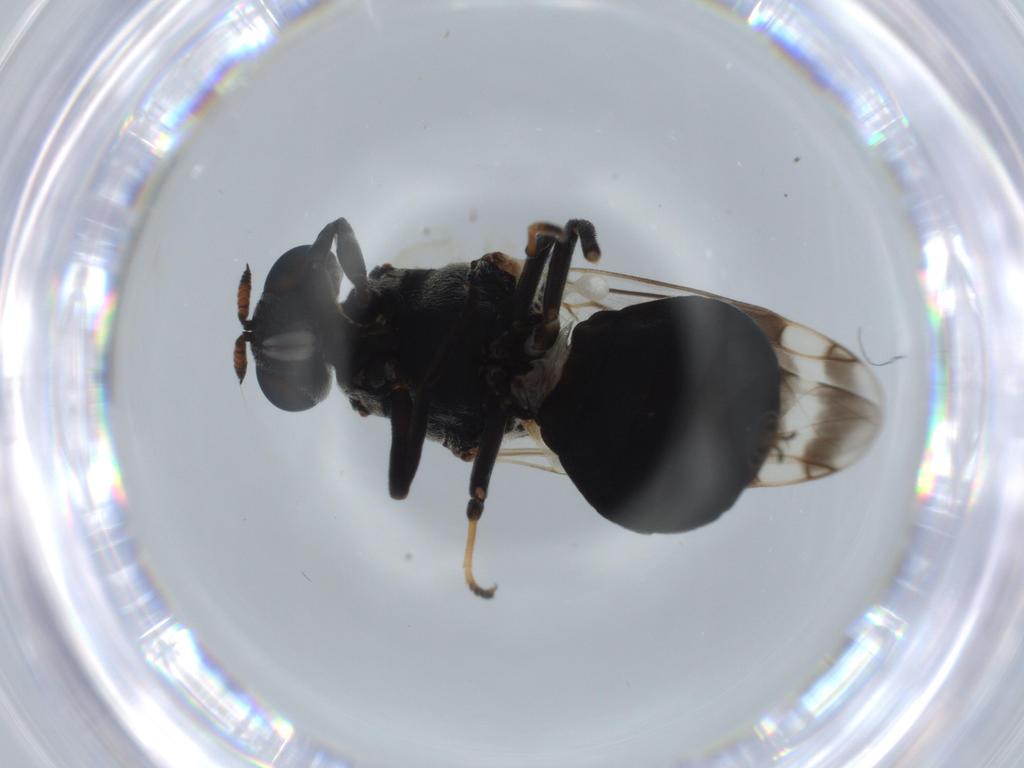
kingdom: Animalia
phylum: Arthropoda
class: Insecta
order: Diptera
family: Stratiomyidae
